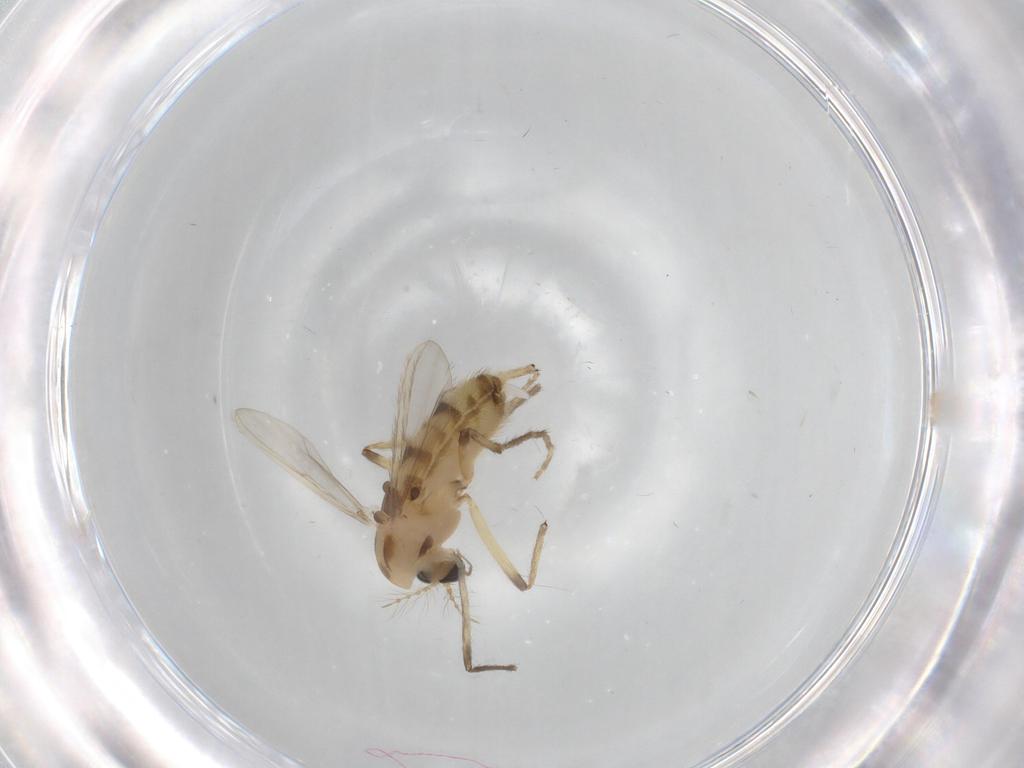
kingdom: Animalia
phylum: Arthropoda
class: Insecta
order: Diptera
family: Chironomidae
